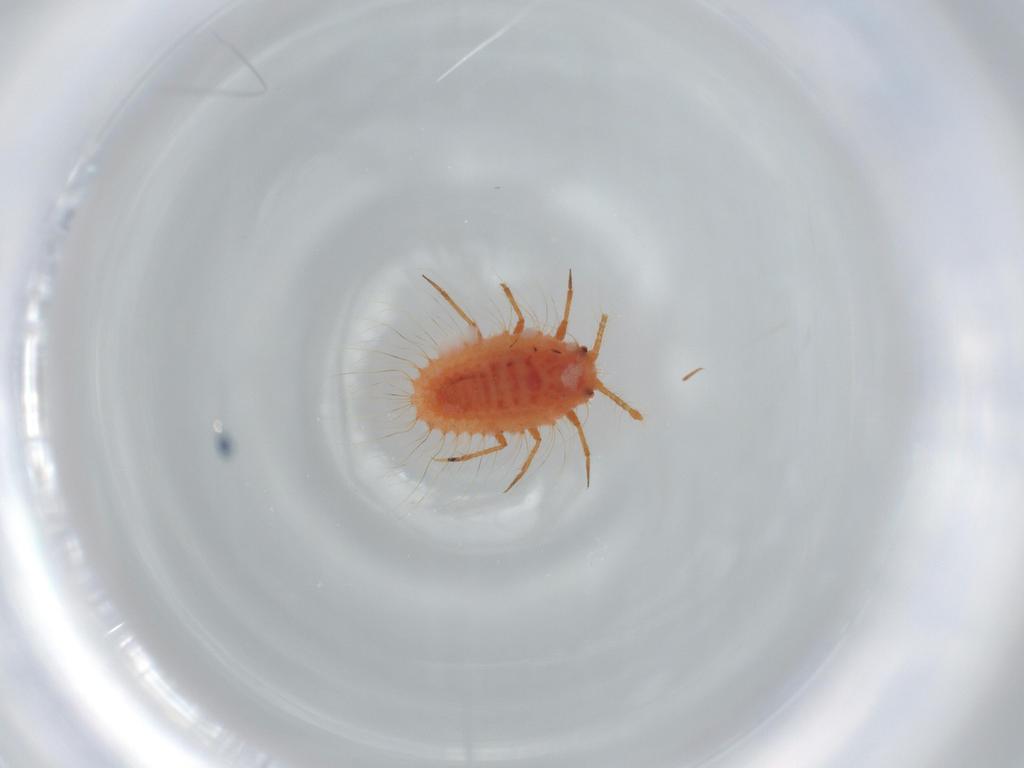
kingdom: Animalia
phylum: Arthropoda
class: Insecta
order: Hemiptera
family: Coccoidea_incertae_sedis
